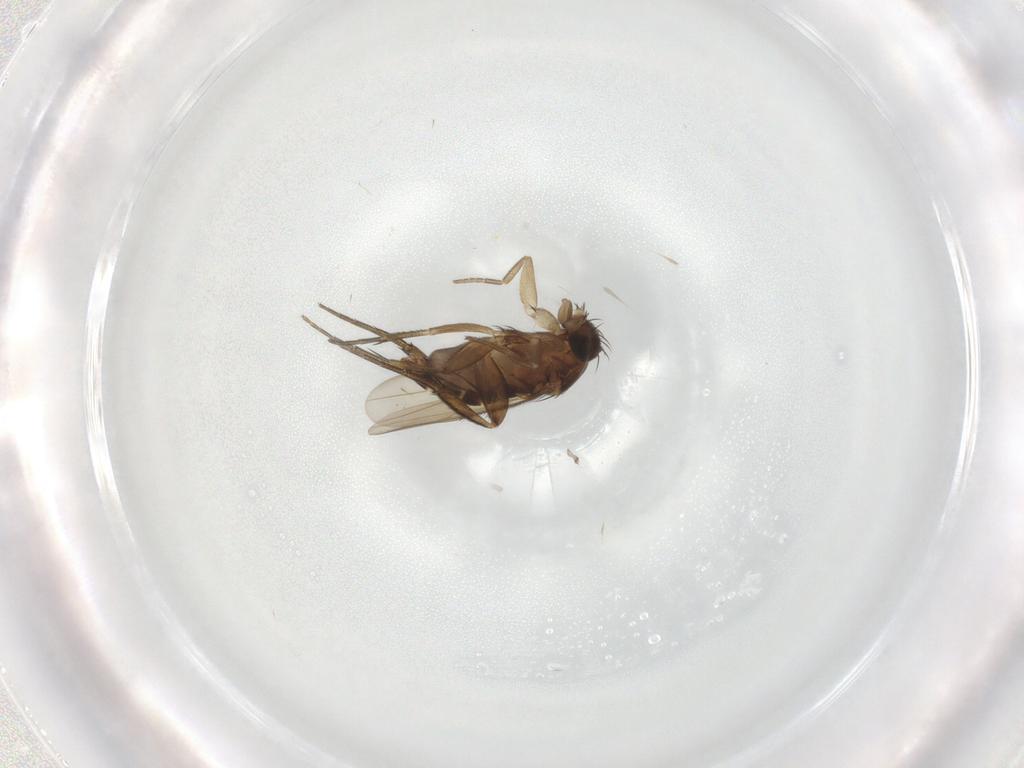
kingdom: Animalia
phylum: Arthropoda
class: Insecta
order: Diptera
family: Phoridae
